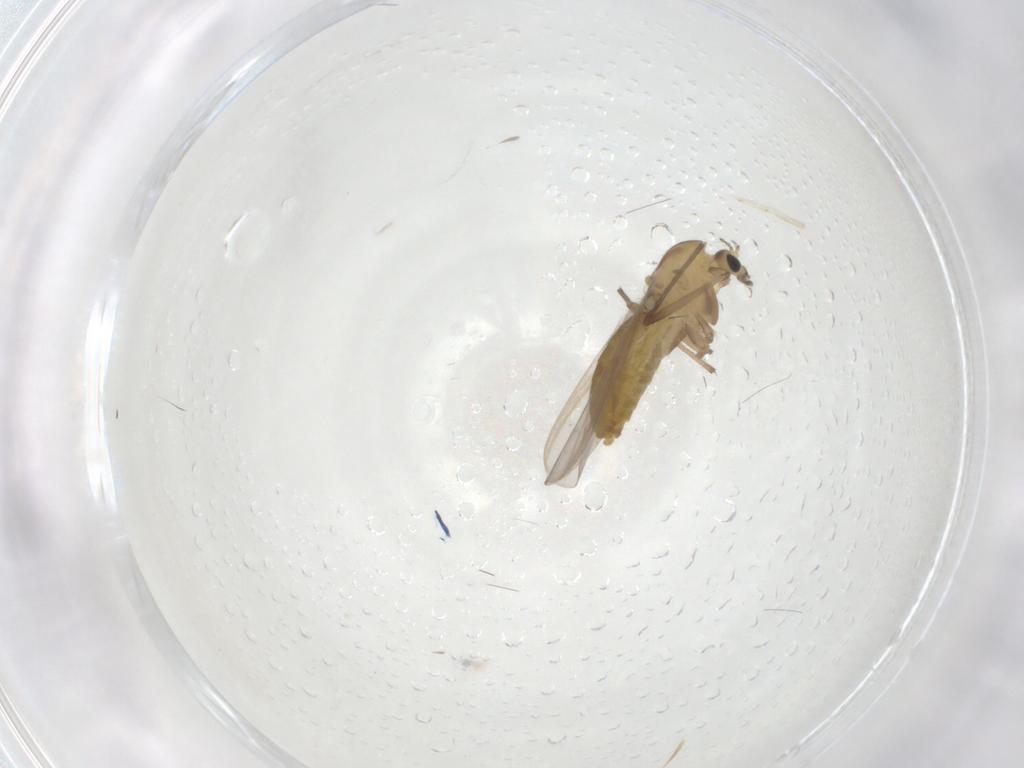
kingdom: Animalia
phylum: Arthropoda
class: Insecta
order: Diptera
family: Chironomidae
